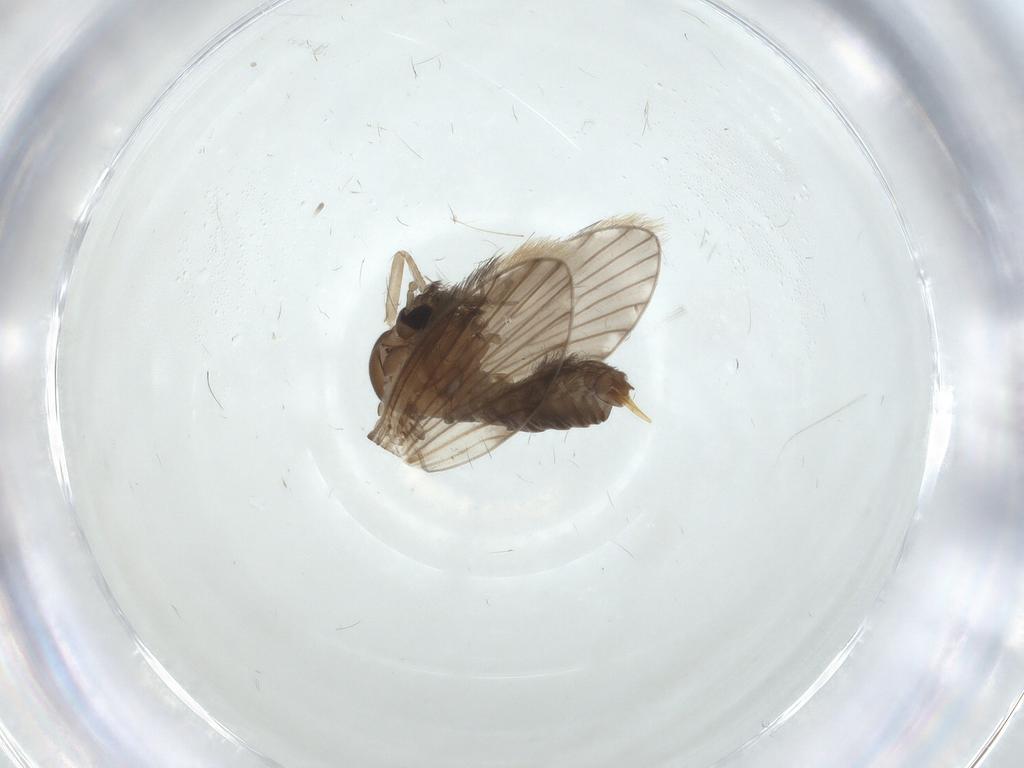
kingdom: Animalia
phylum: Arthropoda
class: Insecta
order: Diptera
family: Psychodidae
